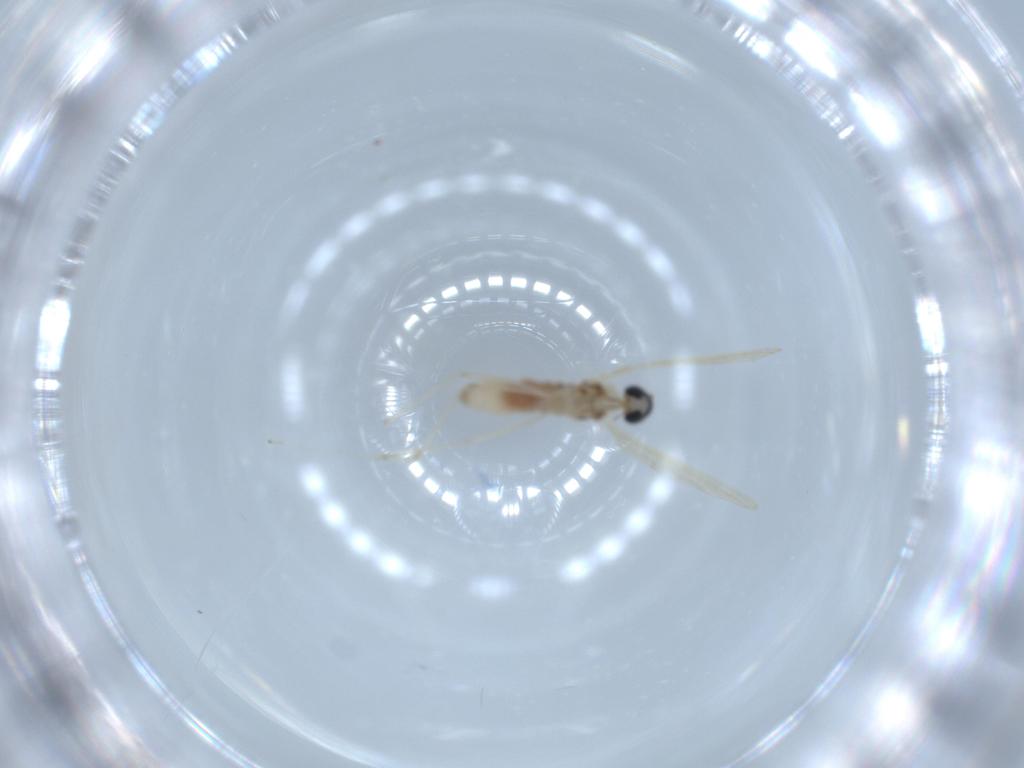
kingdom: Animalia
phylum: Arthropoda
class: Insecta
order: Diptera
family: Cecidomyiidae
